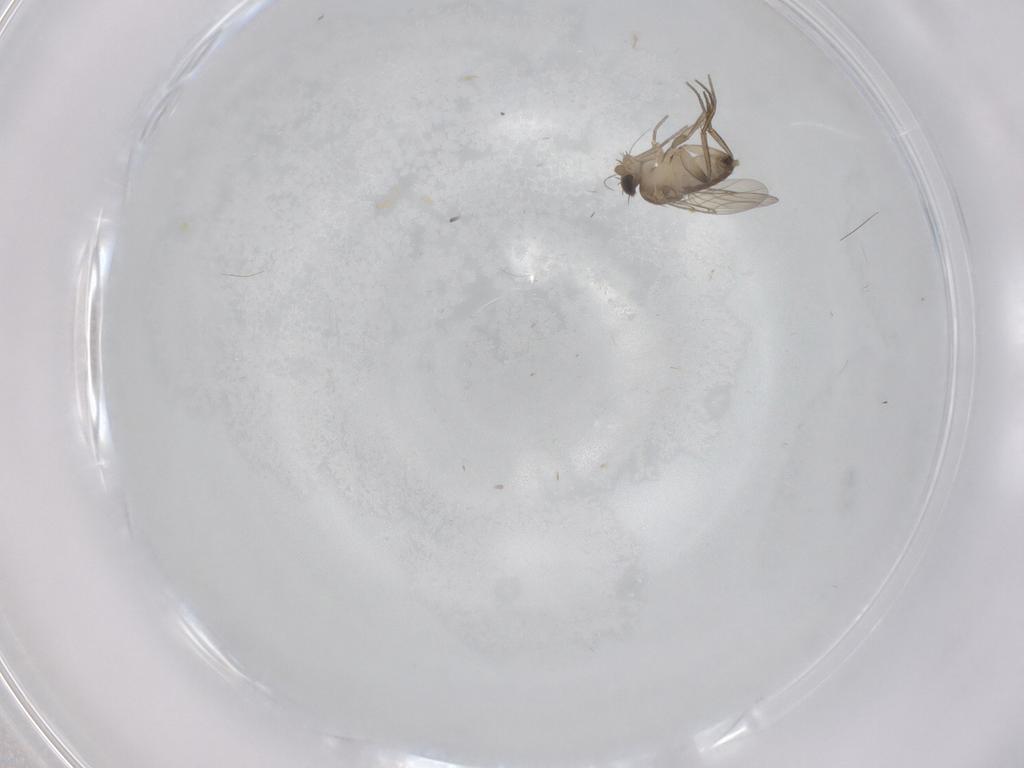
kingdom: Animalia
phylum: Arthropoda
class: Insecta
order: Diptera
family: Phoridae
